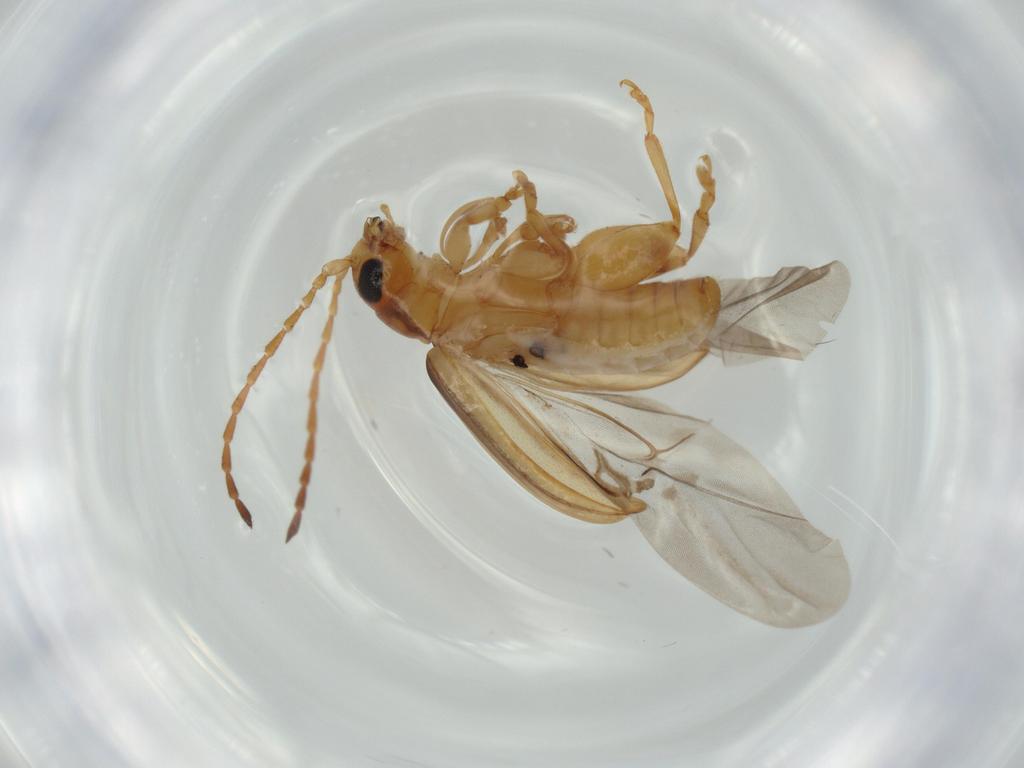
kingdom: Animalia
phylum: Arthropoda
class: Insecta
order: Coleoptera
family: Chrysomelidae
